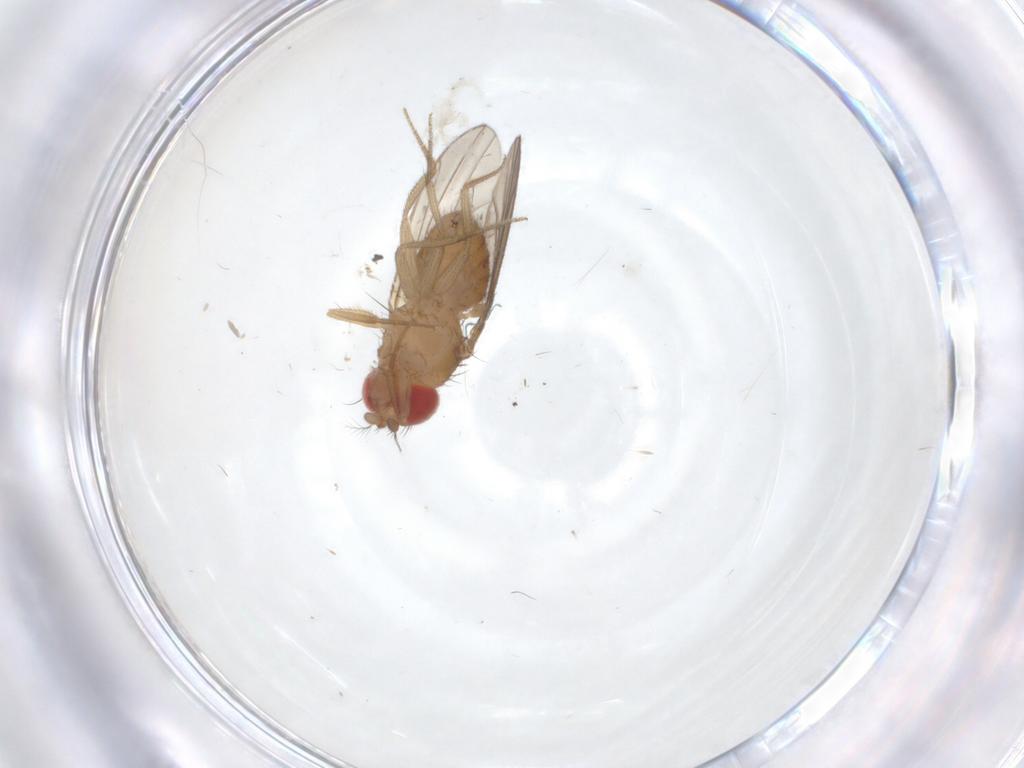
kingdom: Animalia
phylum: Arthropoda
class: Insecta
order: Diptera
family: Drosophilidae
